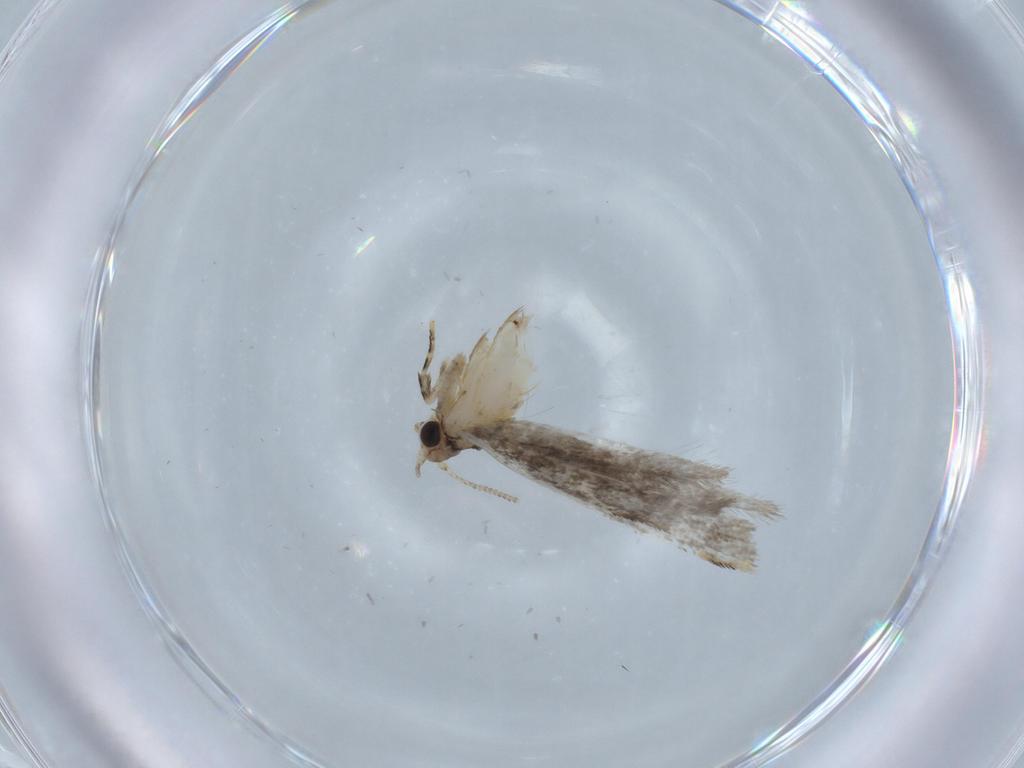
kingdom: Animalia
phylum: Arthropoda
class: Insecta
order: Lepidoptera
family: Tineidae
